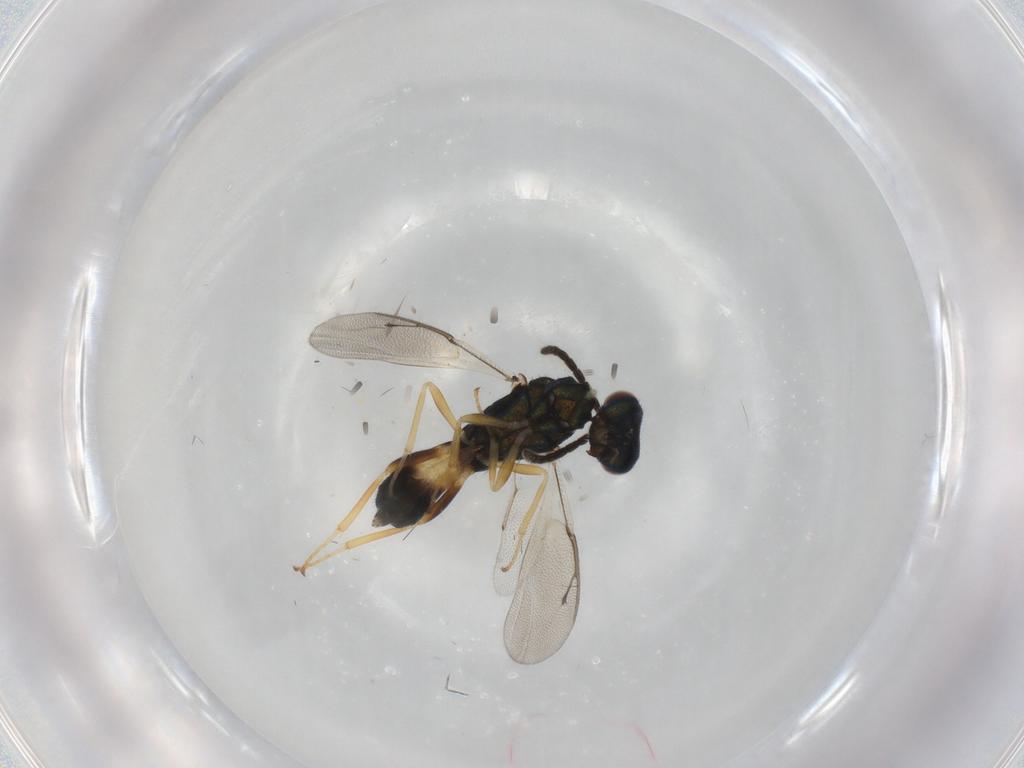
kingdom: Animalia
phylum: Arthropoda
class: Insecta
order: Hymenoptera
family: Pteromalidae
